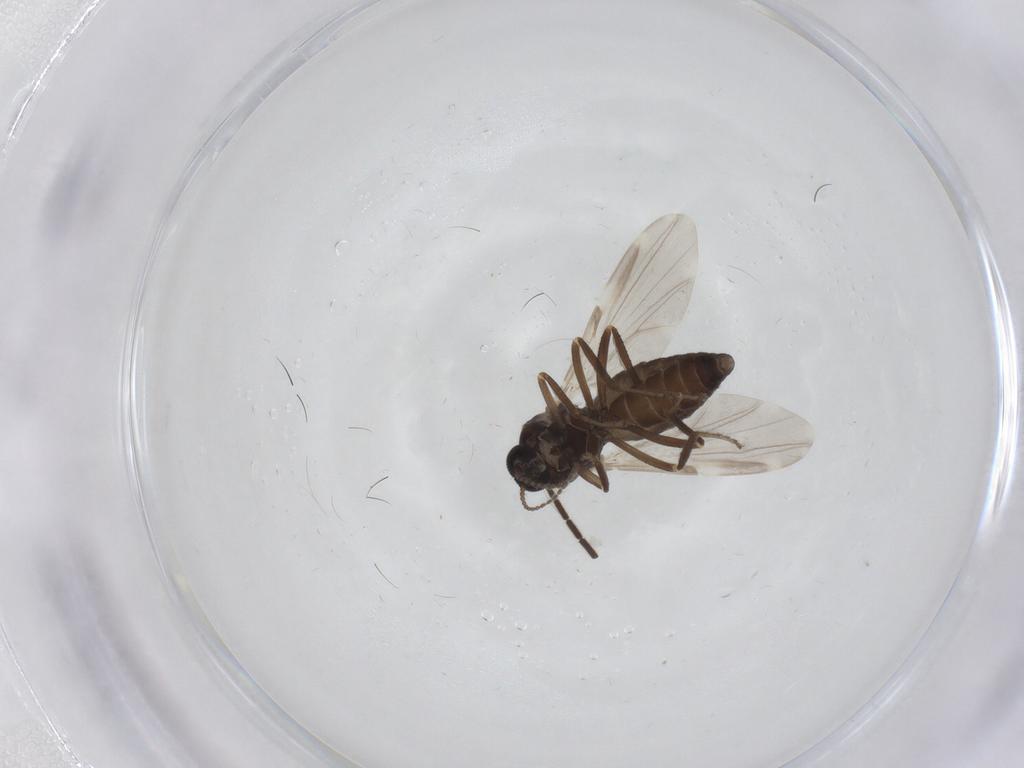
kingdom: Animalia
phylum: Arthropoda
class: Insecta
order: Diptera
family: Ceratopogonidae
